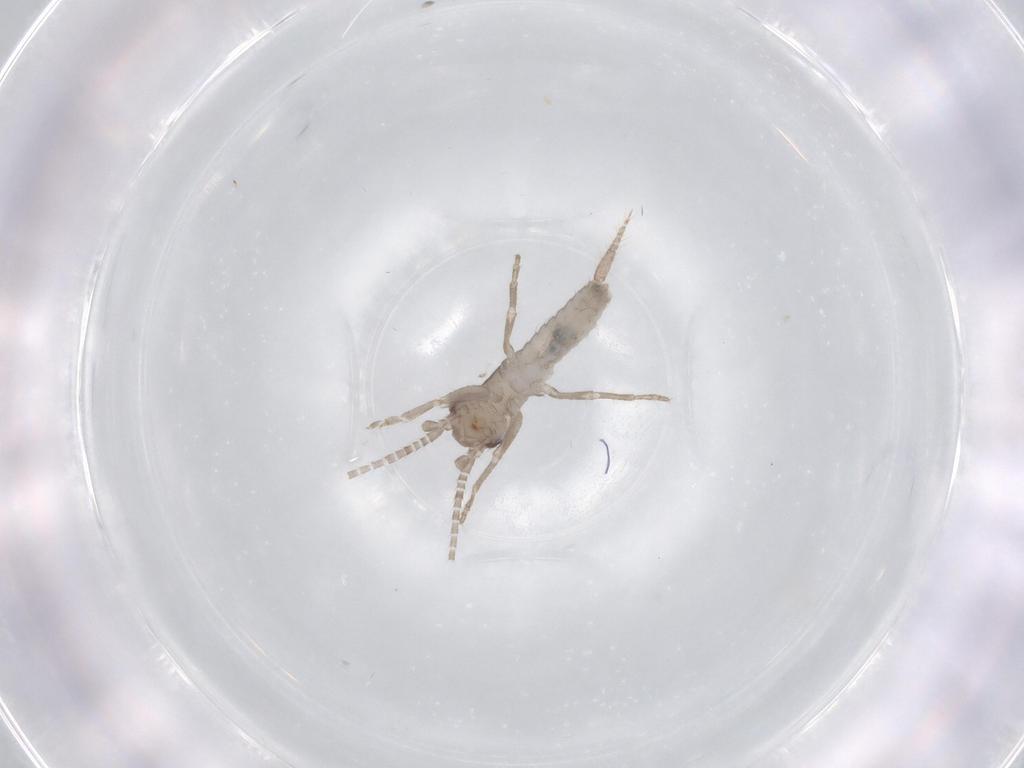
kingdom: Animalia
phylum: Arthropoda
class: Insecta
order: Orthoptera
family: Mogoplistidae
